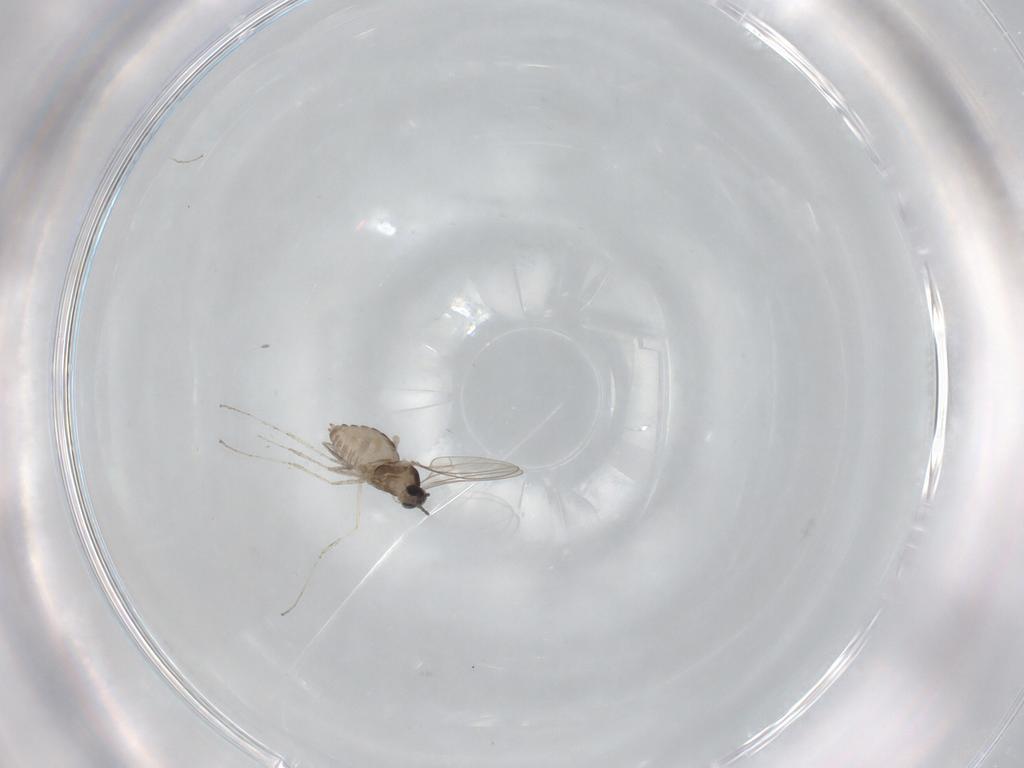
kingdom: Animalia
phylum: Arthropoda
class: Insecta
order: Diptera
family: Cecidomyiidae
